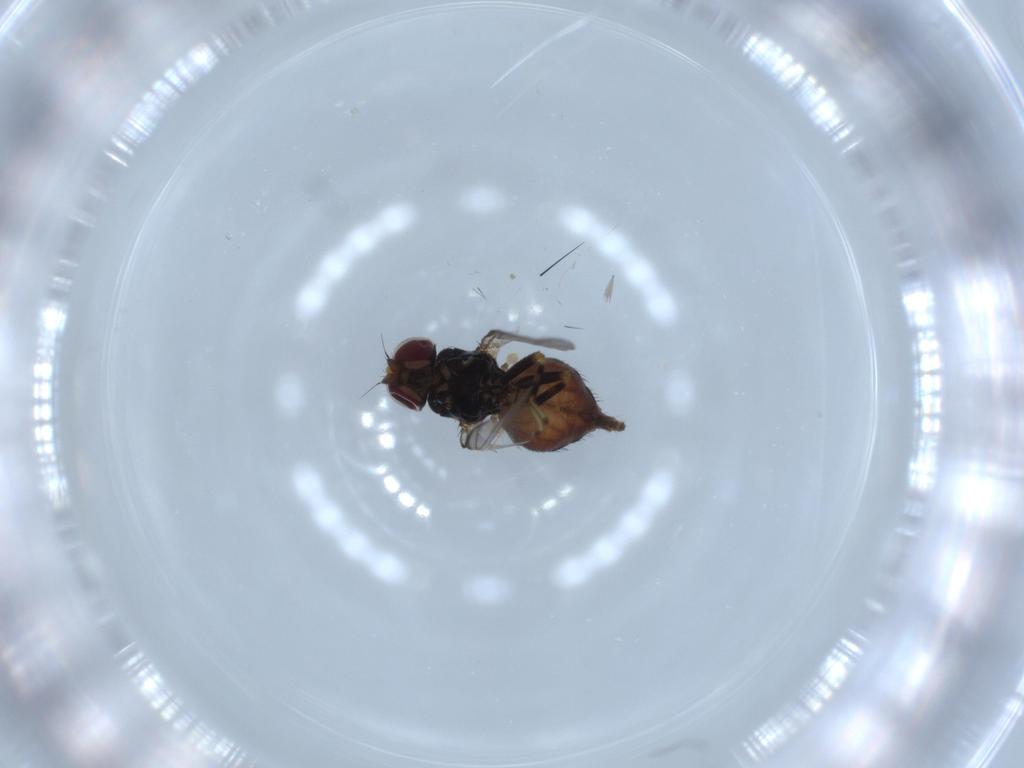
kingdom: Animalia
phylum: Arthropoda
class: Insecta
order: Diptera
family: Chloropidae
